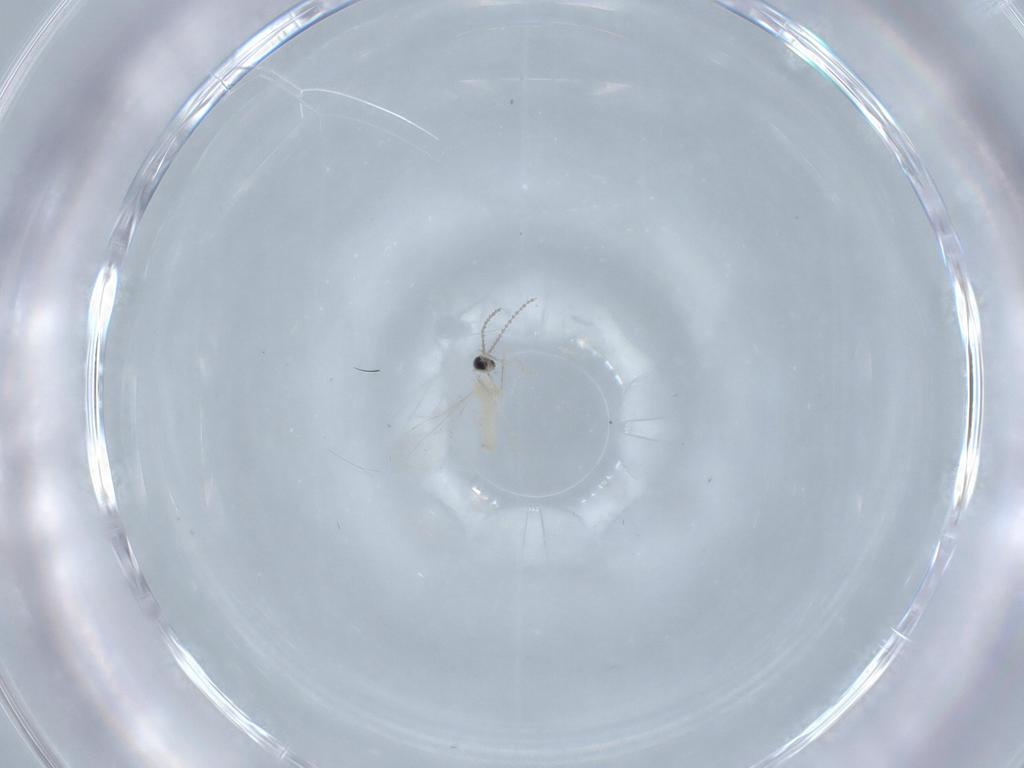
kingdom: Animalia
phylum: Arthropoda
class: Insecta
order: Diptera
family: Cecidomyiidae
